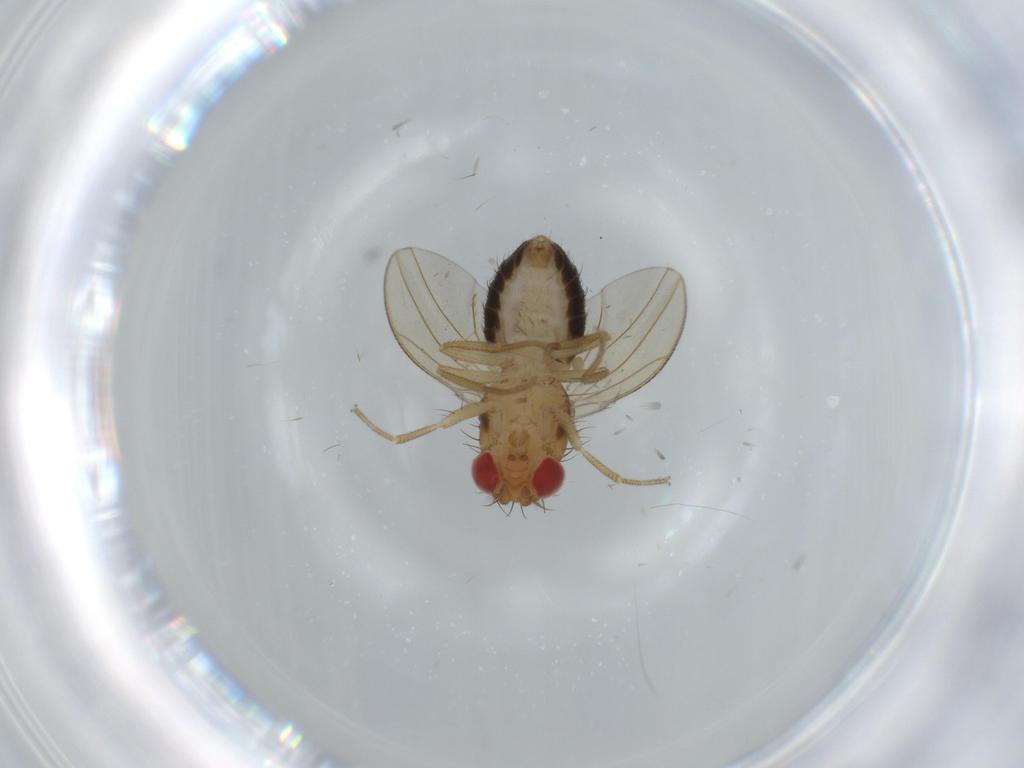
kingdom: Animalia
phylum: Arthropoda
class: Insecta
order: Diptera
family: Drosophilidae
